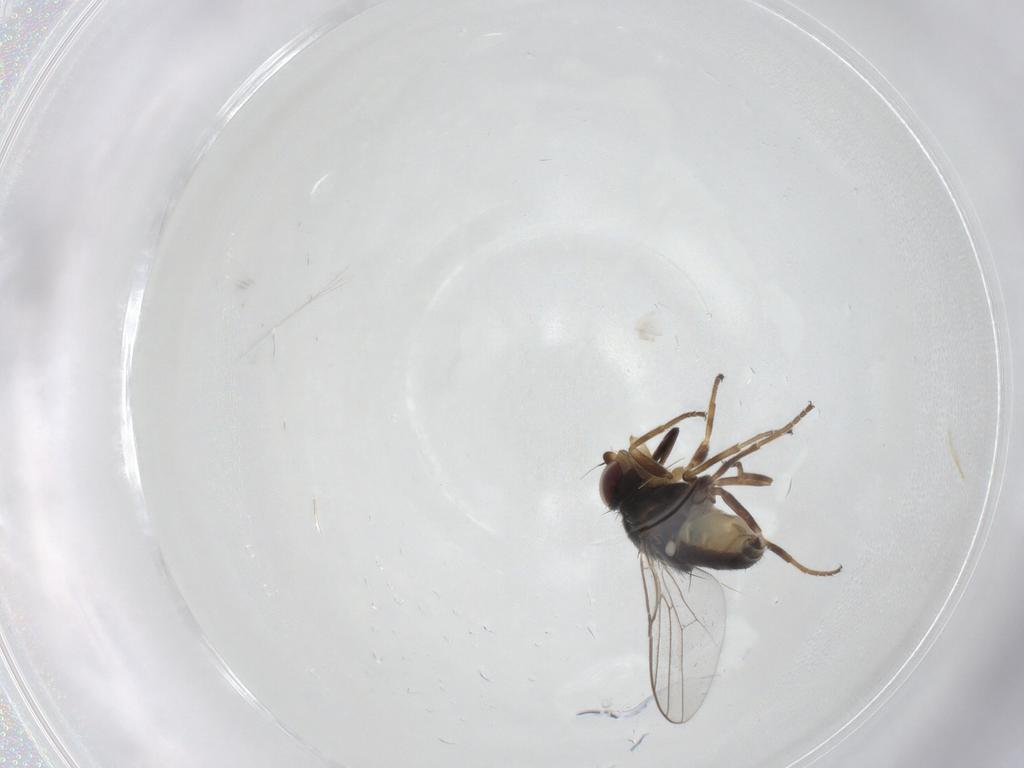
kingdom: Animalia
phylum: Arthropoda
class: Insecta
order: Diptera
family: Chloropidae
